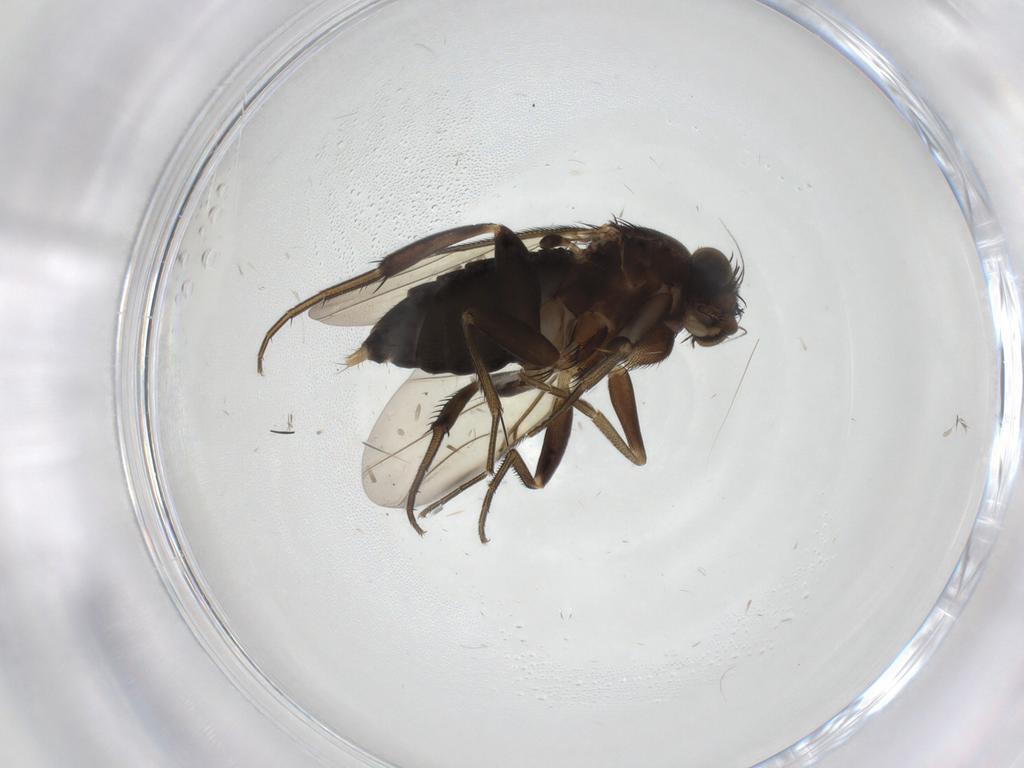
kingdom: Animalia
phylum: Arthropoda
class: Insecta
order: Diptera
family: Phoridae
